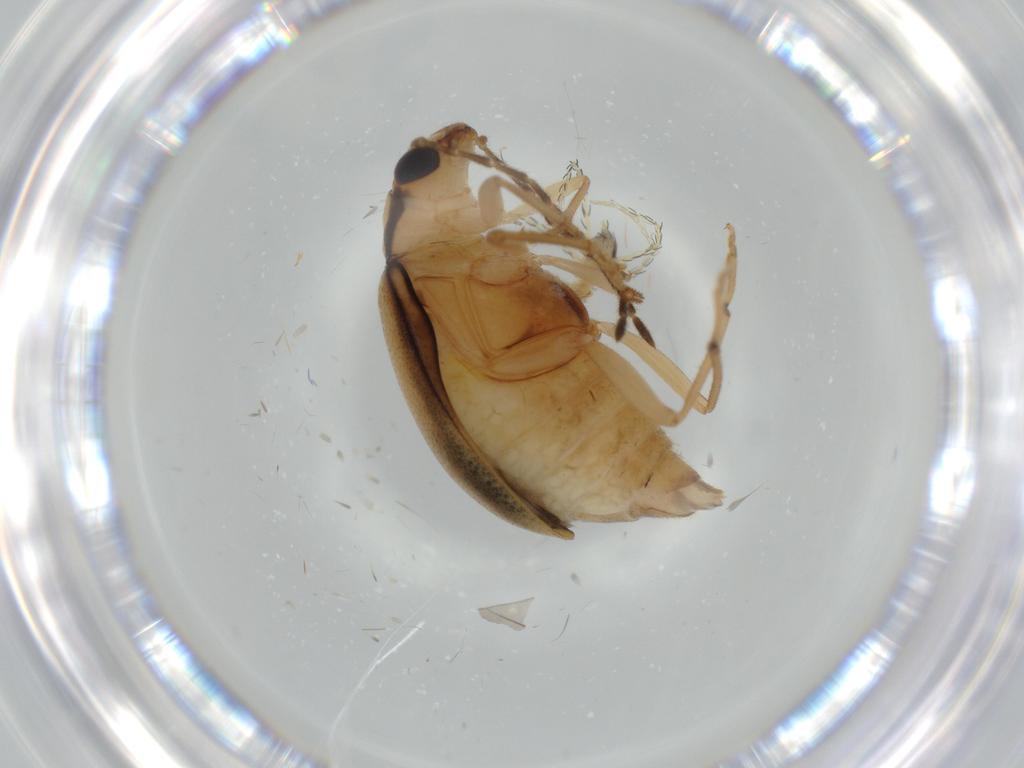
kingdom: Animalia
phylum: Arthropoda
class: Insecta
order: Coleoptera
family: Chrysomelidae
